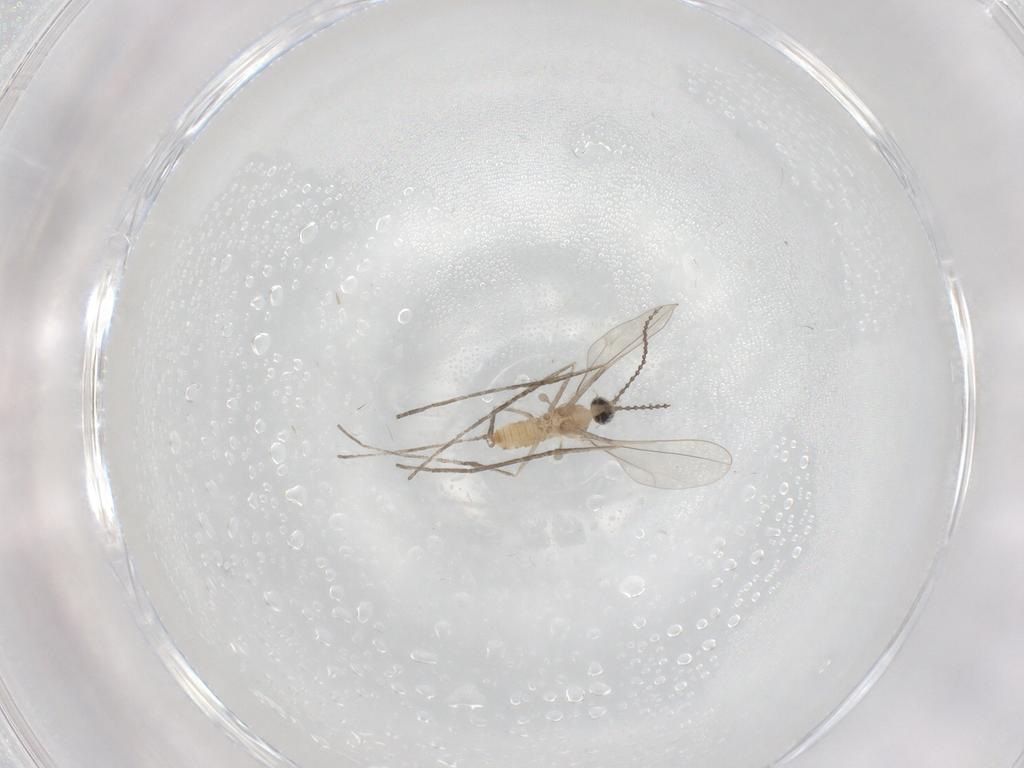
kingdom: Animalia
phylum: Arthropoda
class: Insecta
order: Diptera
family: Cecidomyiidae
